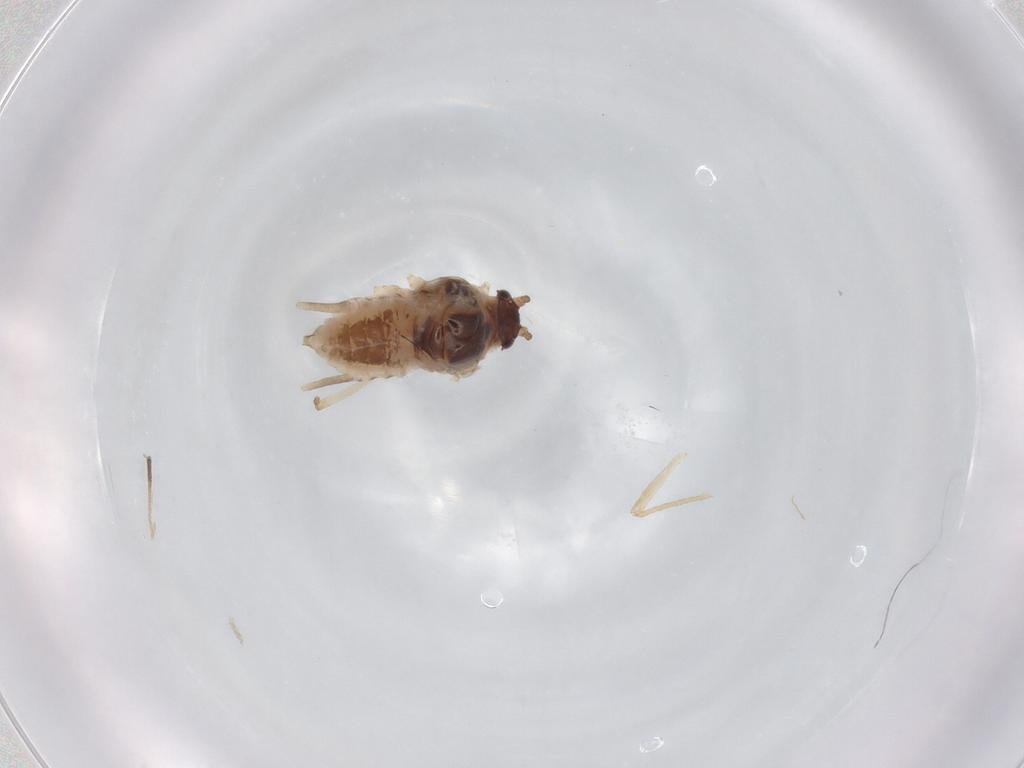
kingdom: Animalia
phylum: Arthropoda
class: Insecta
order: Hemiptera
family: Aphididae
